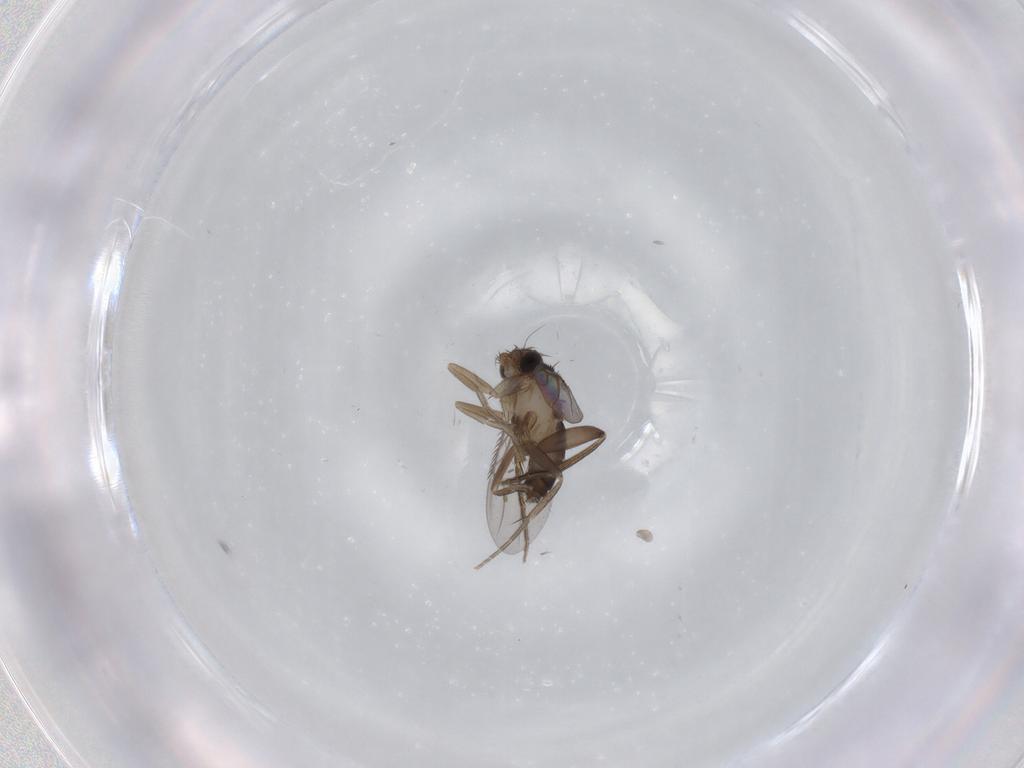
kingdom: Animalia
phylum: Arthropoda
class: Insecta
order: Diptera
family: Phoridae
